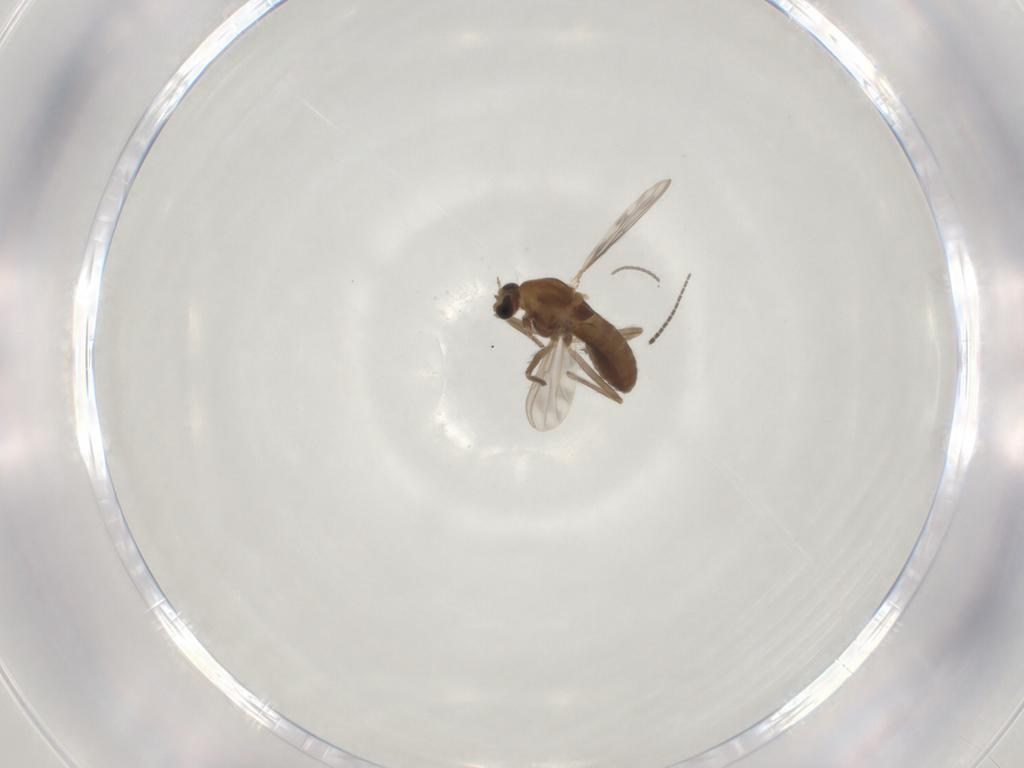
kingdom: Animalia
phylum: Arthropoda
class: Insecta
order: Diptera
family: Chironomidae
